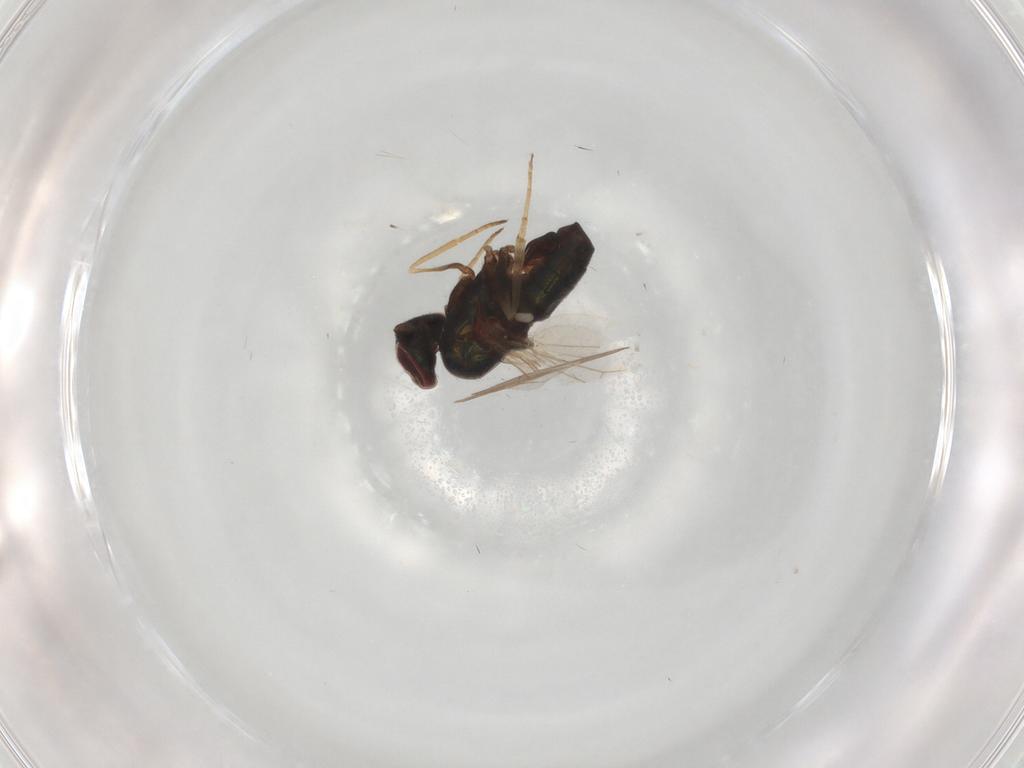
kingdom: Animalia
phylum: Arthropoda
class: Insecta
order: Diptera
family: Dolichopodidae
